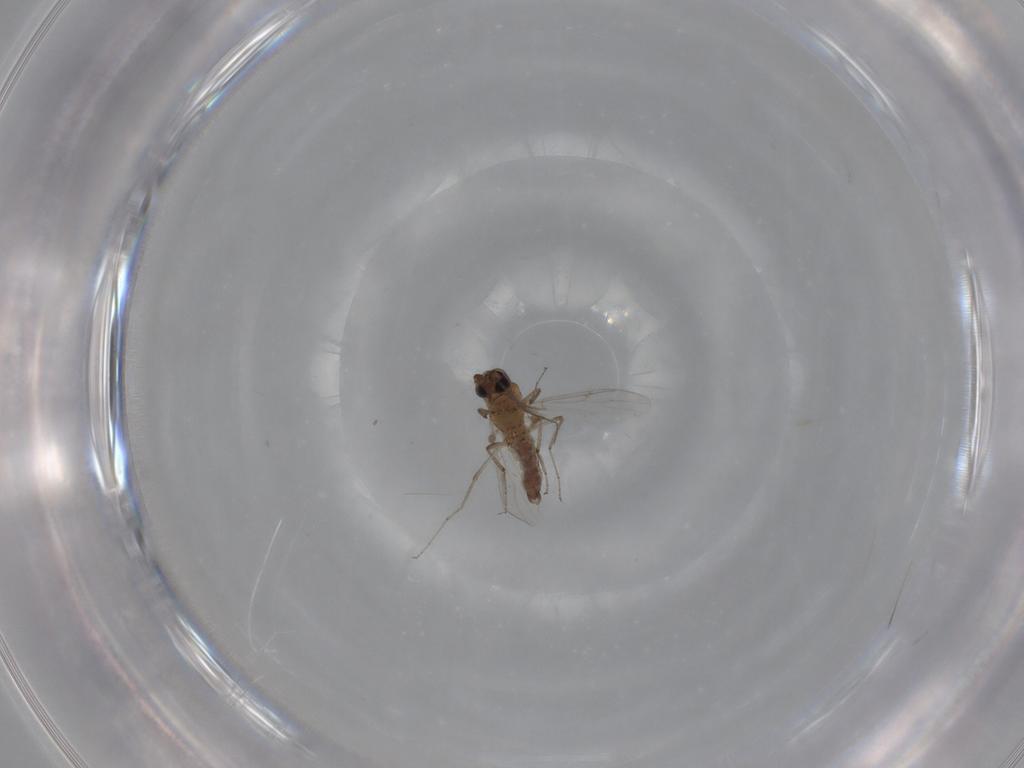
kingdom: Animalia
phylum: Arthropoda
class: Insecta
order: Diptera
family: Ceratopogonidae
